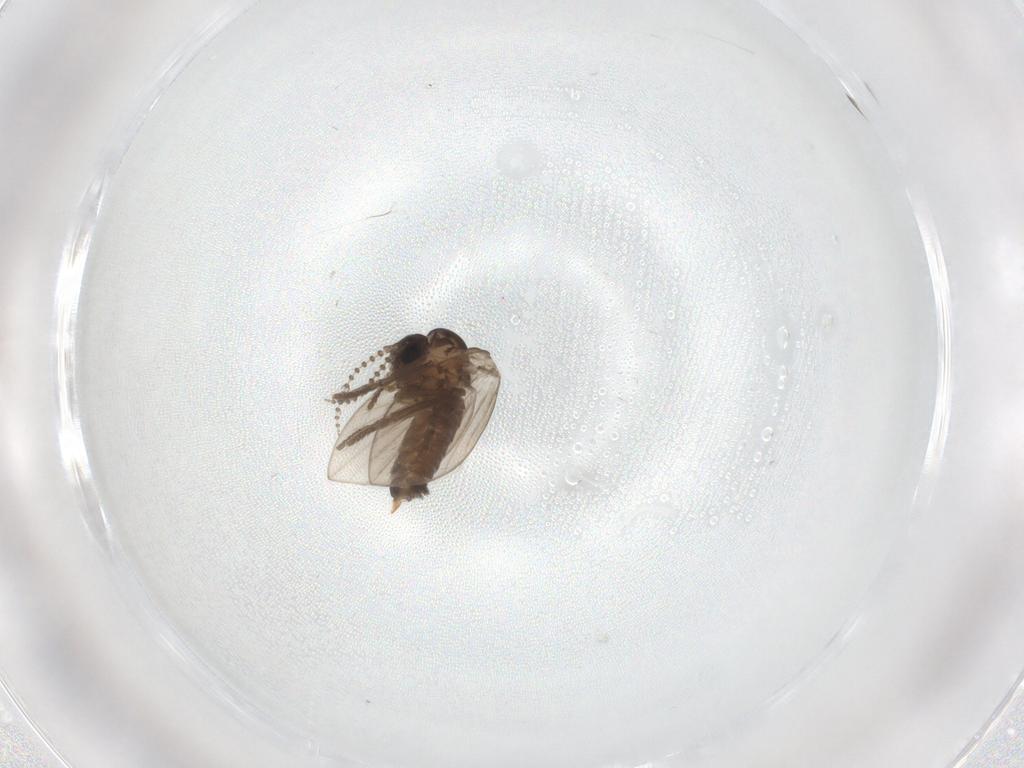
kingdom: Animalia
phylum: Arthropoda
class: Insecta
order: Diptera
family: Psychodidae
